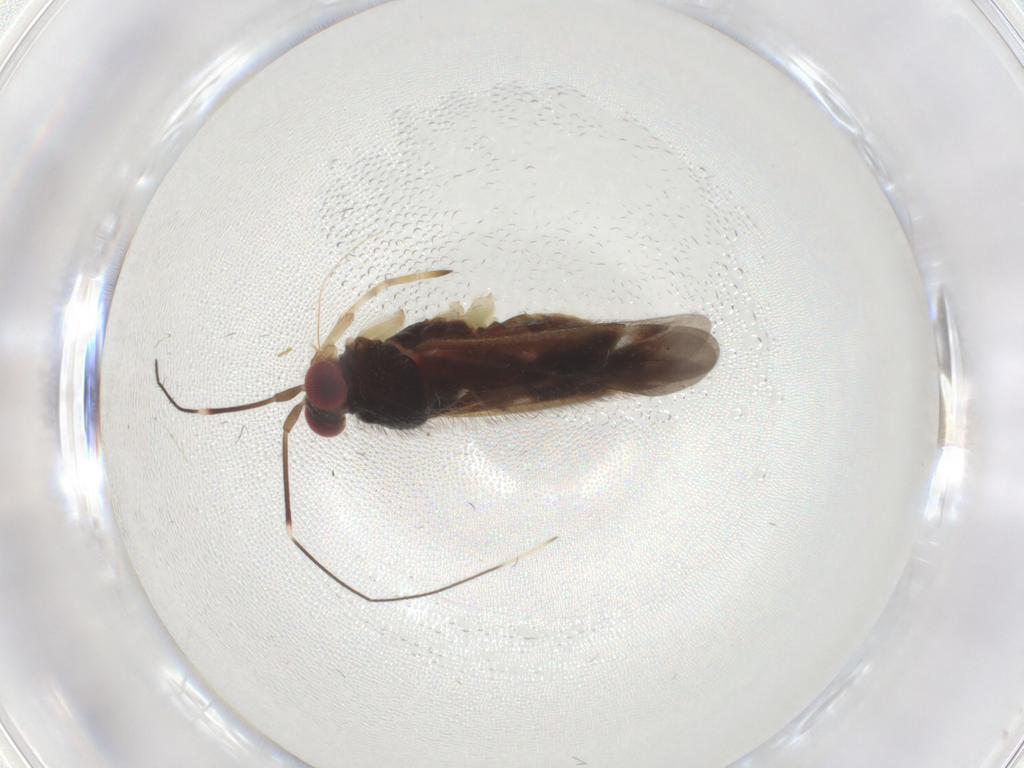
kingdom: Animalia
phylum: Arthropoda
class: Insecta
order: Hemiptera
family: Miridae
